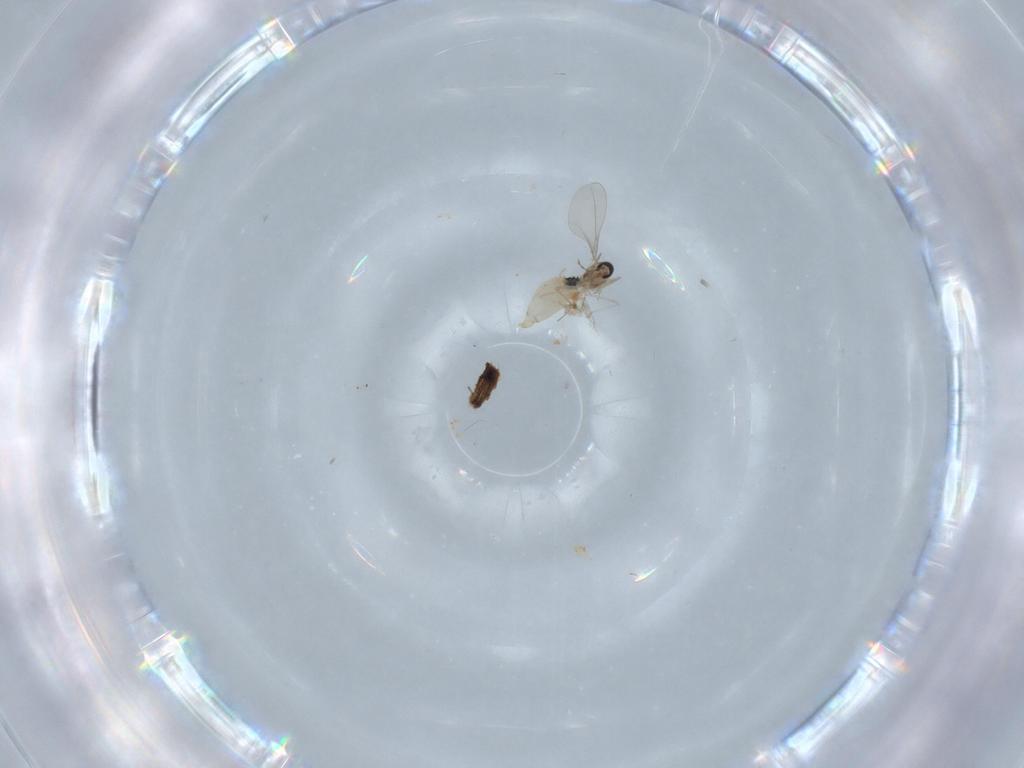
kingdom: Animalia
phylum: Arthropoda
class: Insecta
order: Diptera
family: Cecidomyiidae
